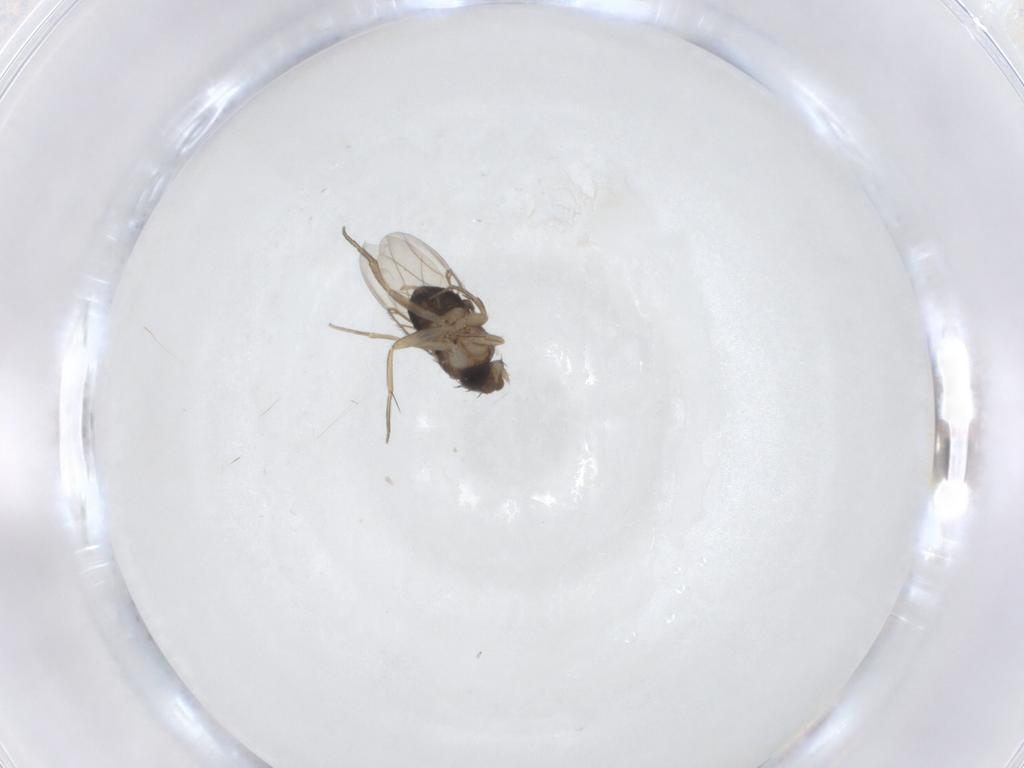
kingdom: Animalia
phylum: Arthropoda
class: Insecta
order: Diptera
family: Phoridae
